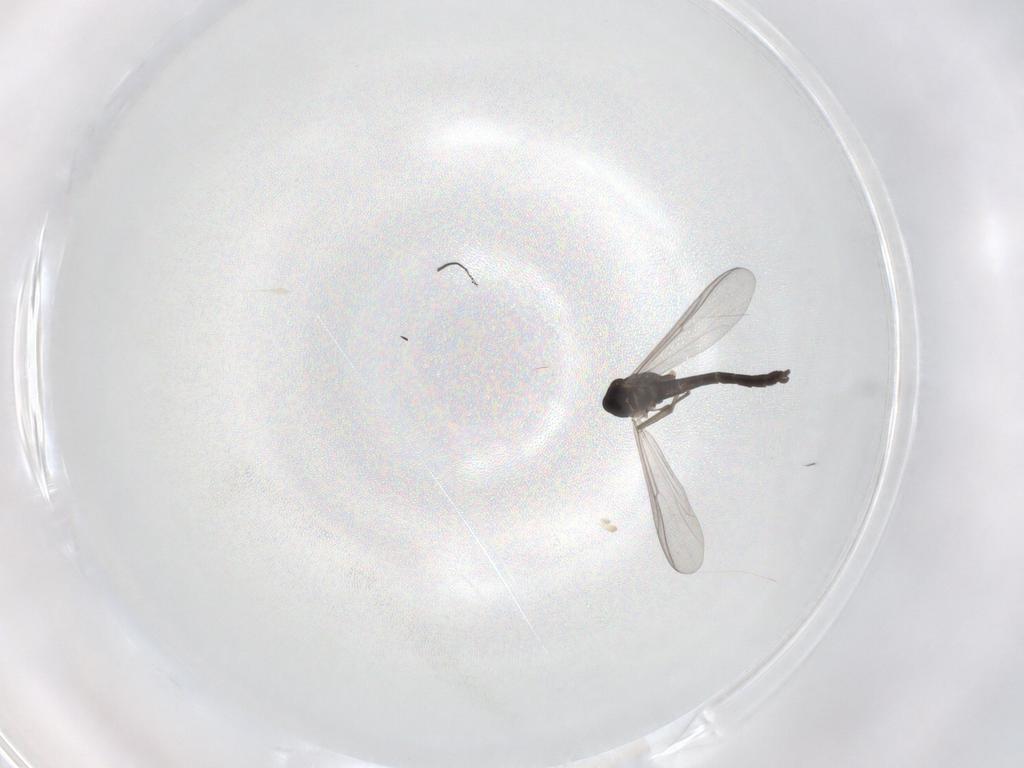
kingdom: Animalia
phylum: Arthropoda
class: Insecta
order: Diptera
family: Chironomidae
